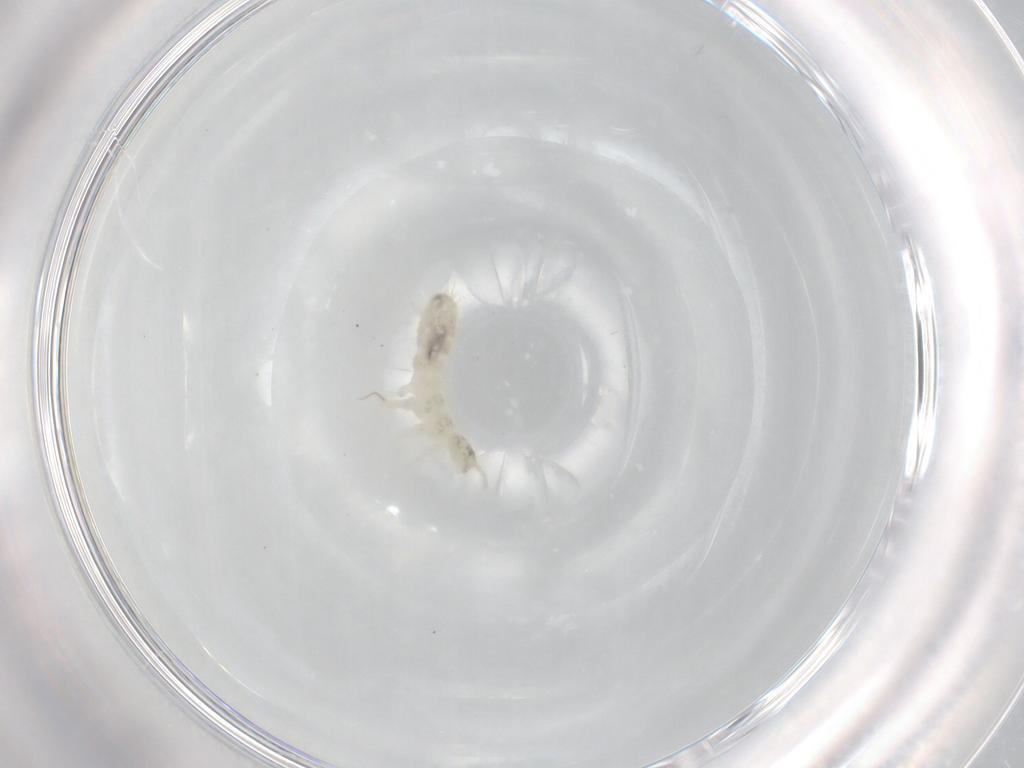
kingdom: Animalia
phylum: Arthropoda
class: Collembola
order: Entomobryomorpha
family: Isotomidae
